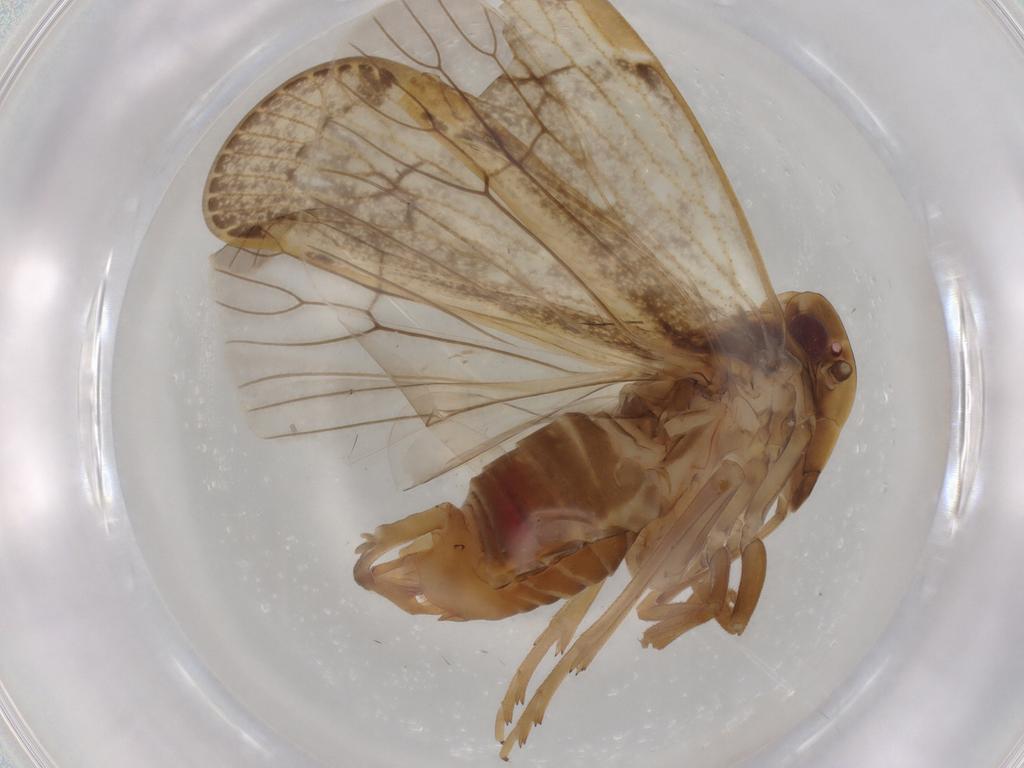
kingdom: Animalia
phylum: Arthropoda
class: Insecta
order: Hemiptera
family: Cixiidae
